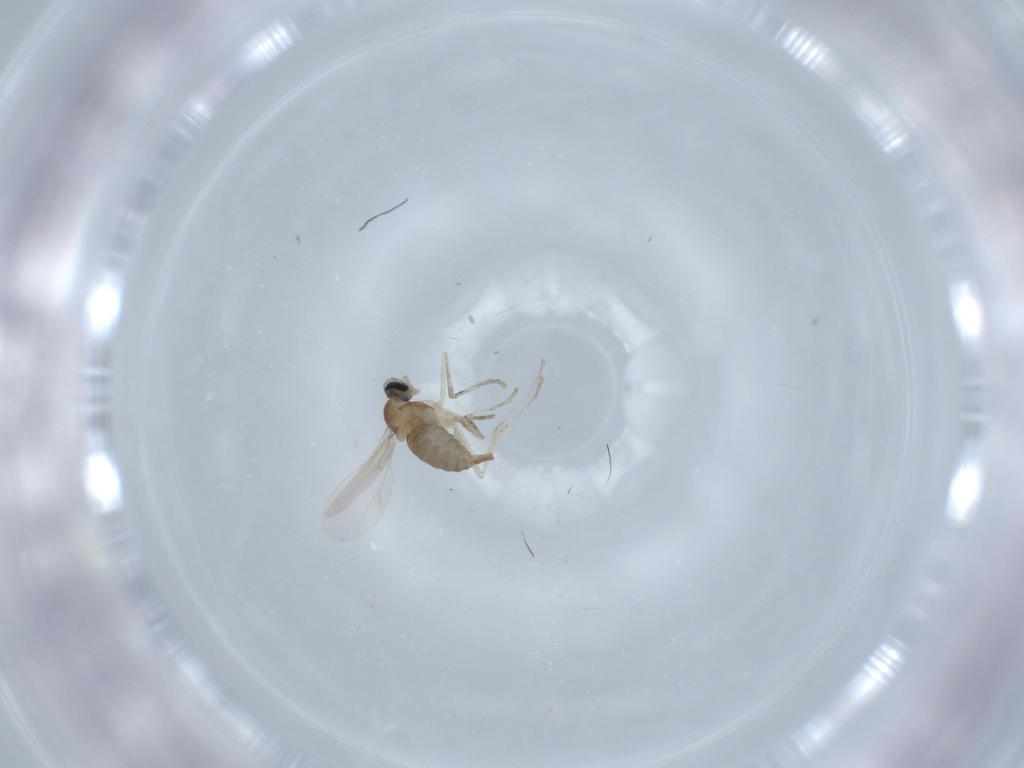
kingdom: Animalia
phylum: Arthropoda
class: Insecta
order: Diptera
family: Cecidomyiidae
